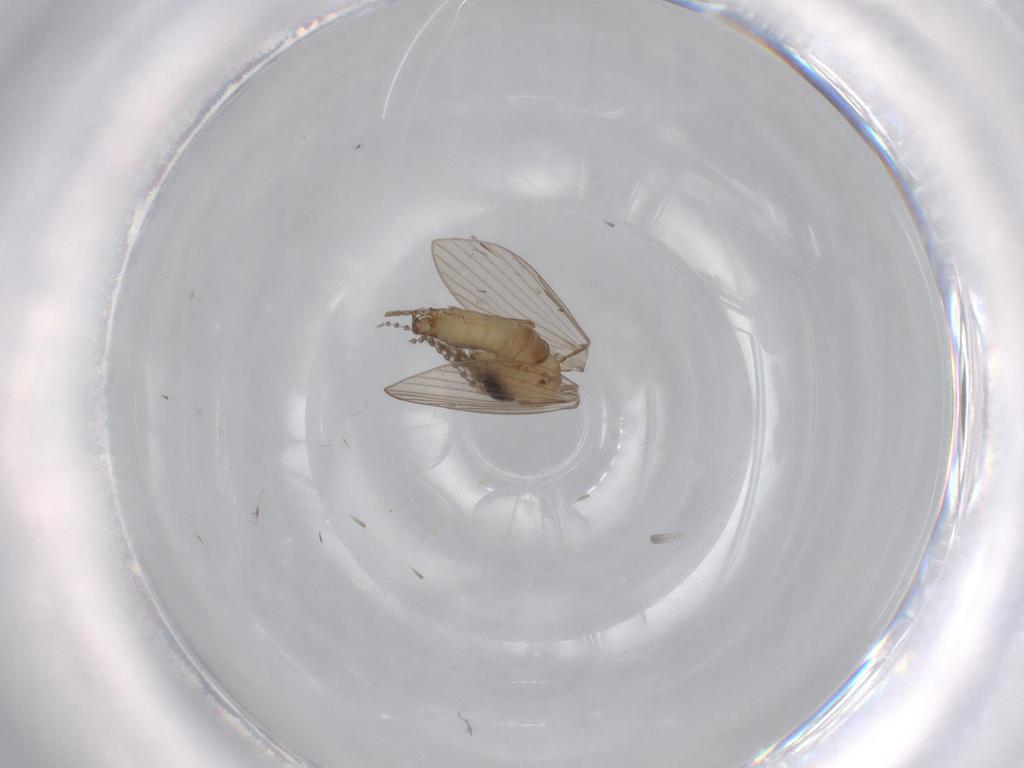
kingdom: Animalia
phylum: Arthropoda
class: Insecta
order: Diptera
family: Psychodidae
